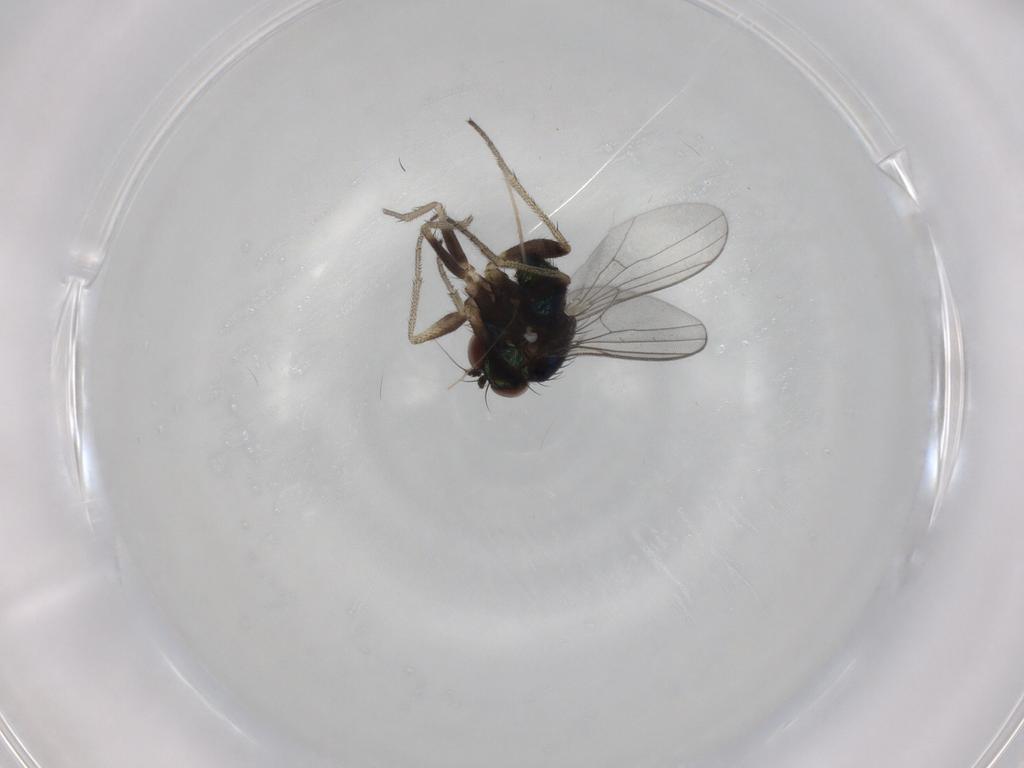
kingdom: Animalia
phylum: Arthropoda
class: Insecta
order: Diptera
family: Dolichopodidae
